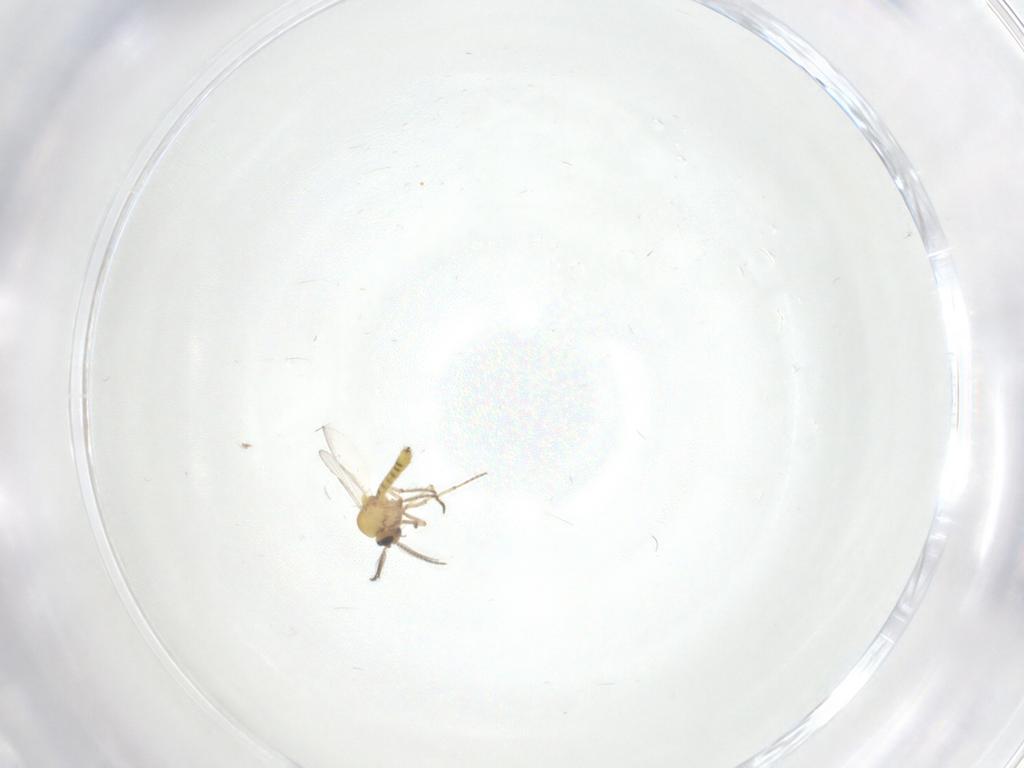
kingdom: Animalia
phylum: Arthropoda
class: Insecta
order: Diptera
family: Ceratopogonidae
